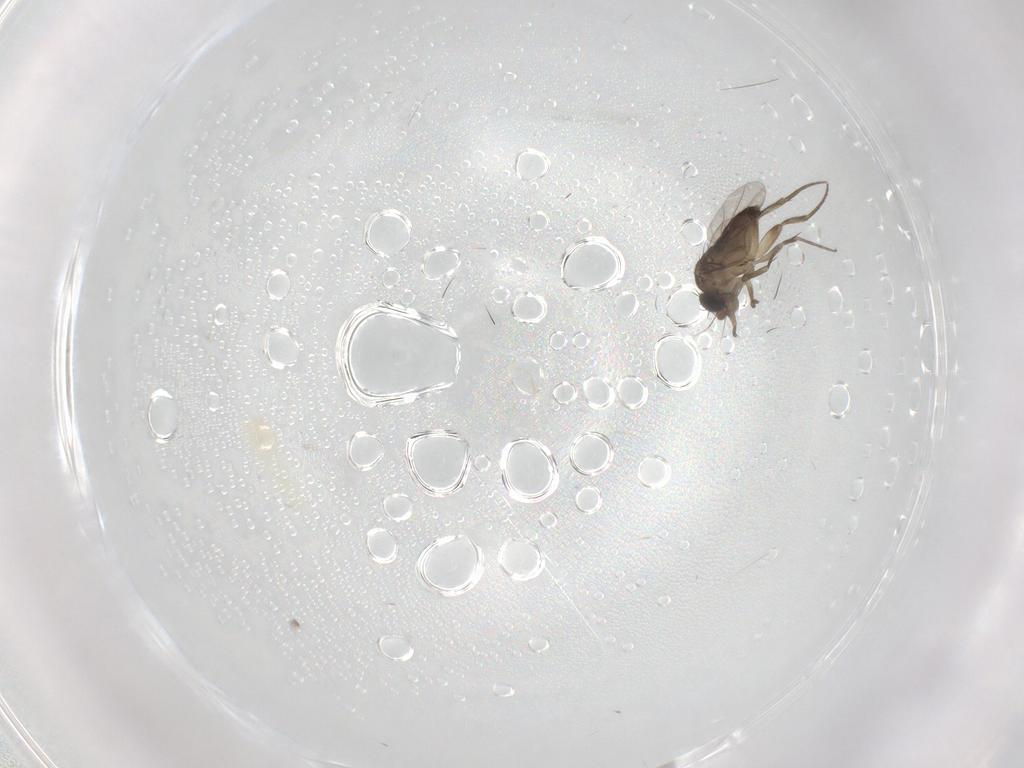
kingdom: Animalia
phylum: Arthropoda
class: Insecta
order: Diptera
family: Phoridae
